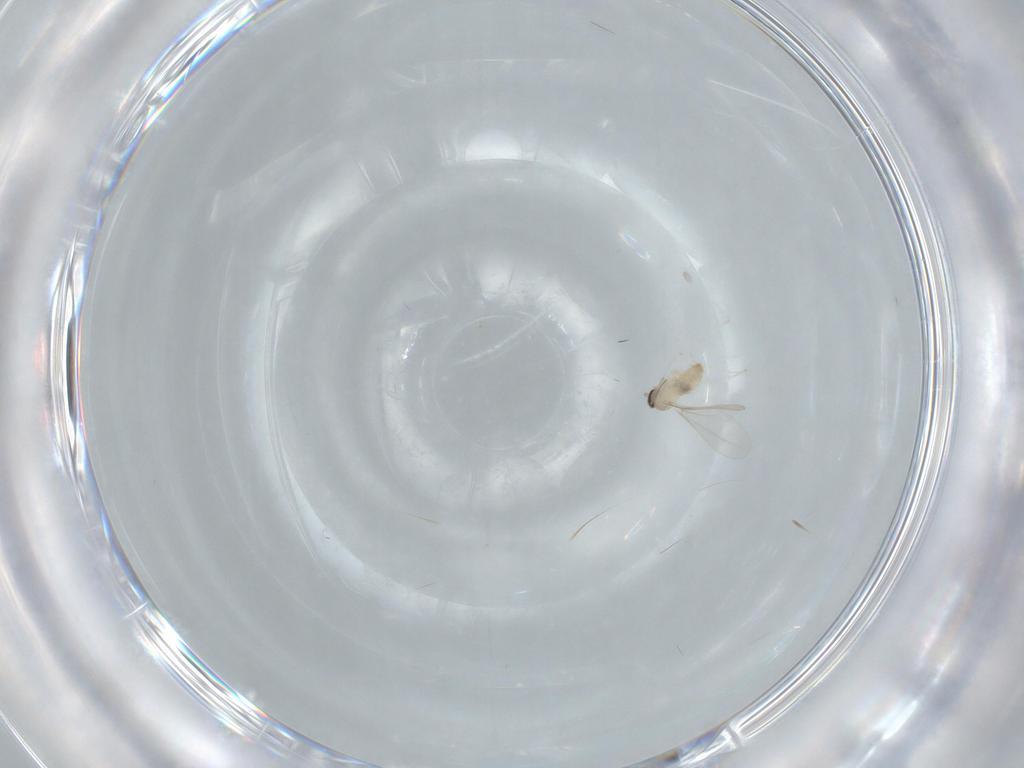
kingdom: Animalia
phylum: Arthropoda
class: Insecta
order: Diptera
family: Cecidomyiidae
